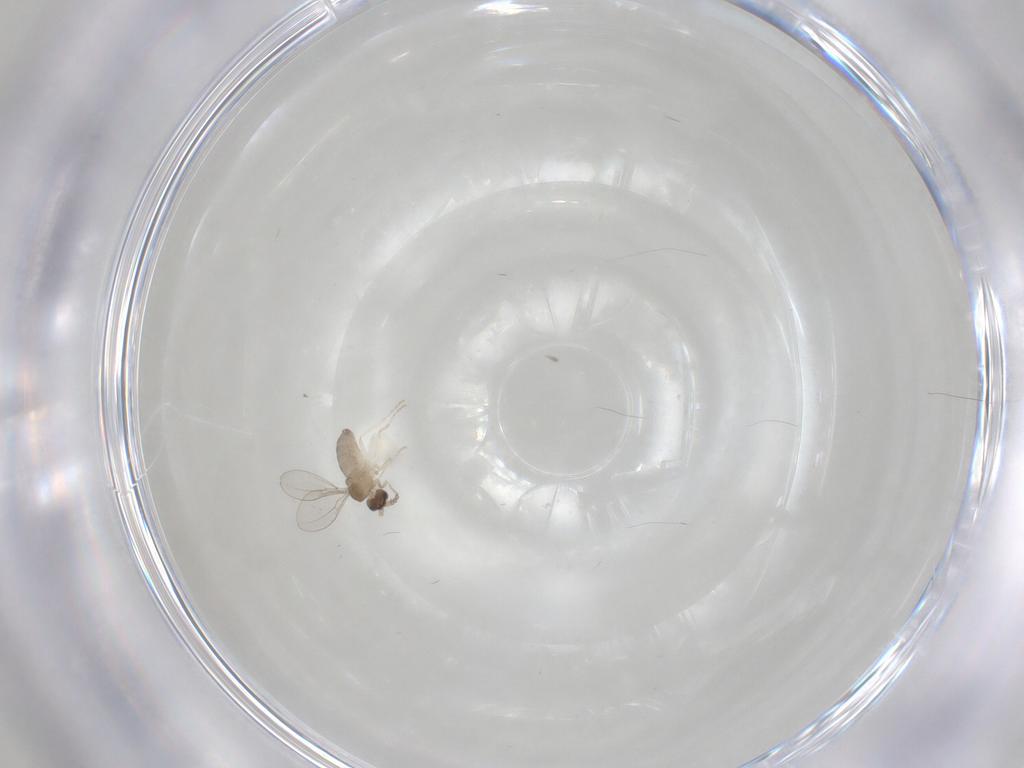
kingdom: Animalia
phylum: Arthropoda
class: Insecta
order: Diptera
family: Cecidomyiidae
